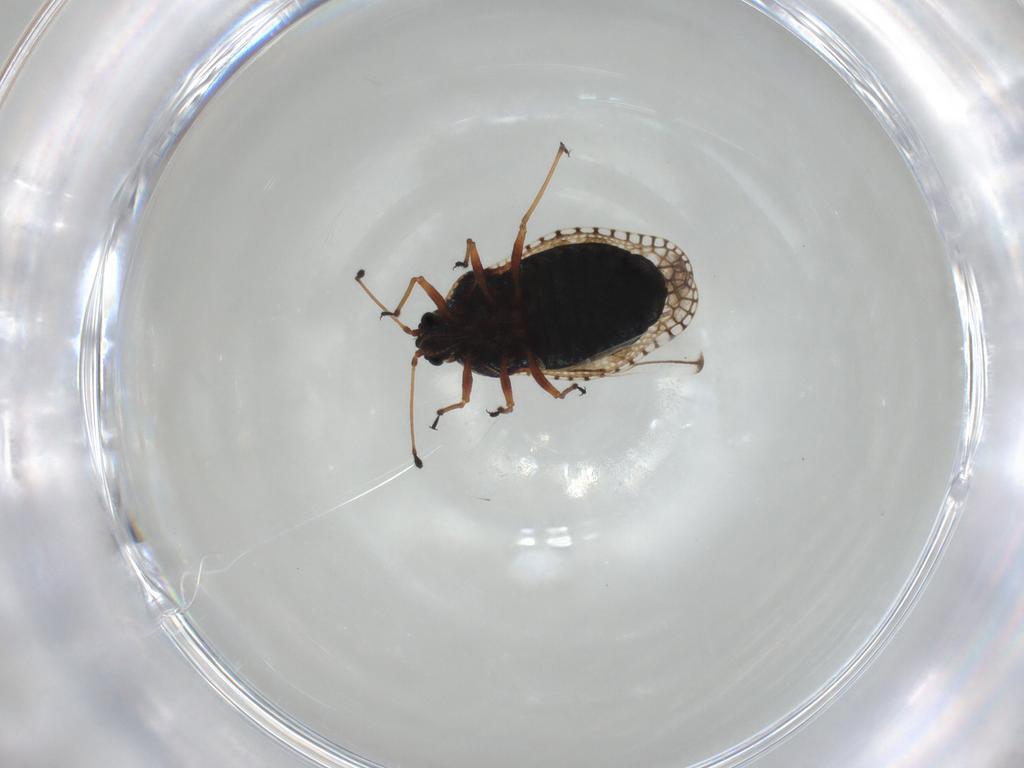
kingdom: Animalia
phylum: Arthropoda
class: Insecta
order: Hemiptera
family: Tingidae
